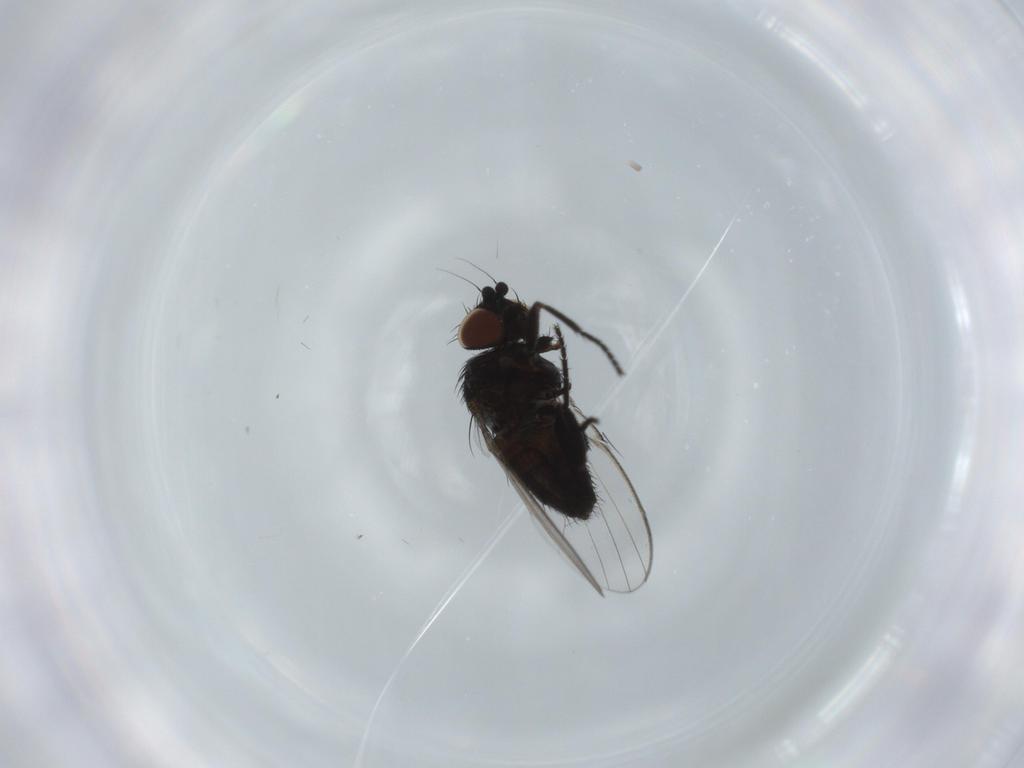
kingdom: Animalia
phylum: Arthropoda
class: Insecta
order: Diptera
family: Milichiidae
